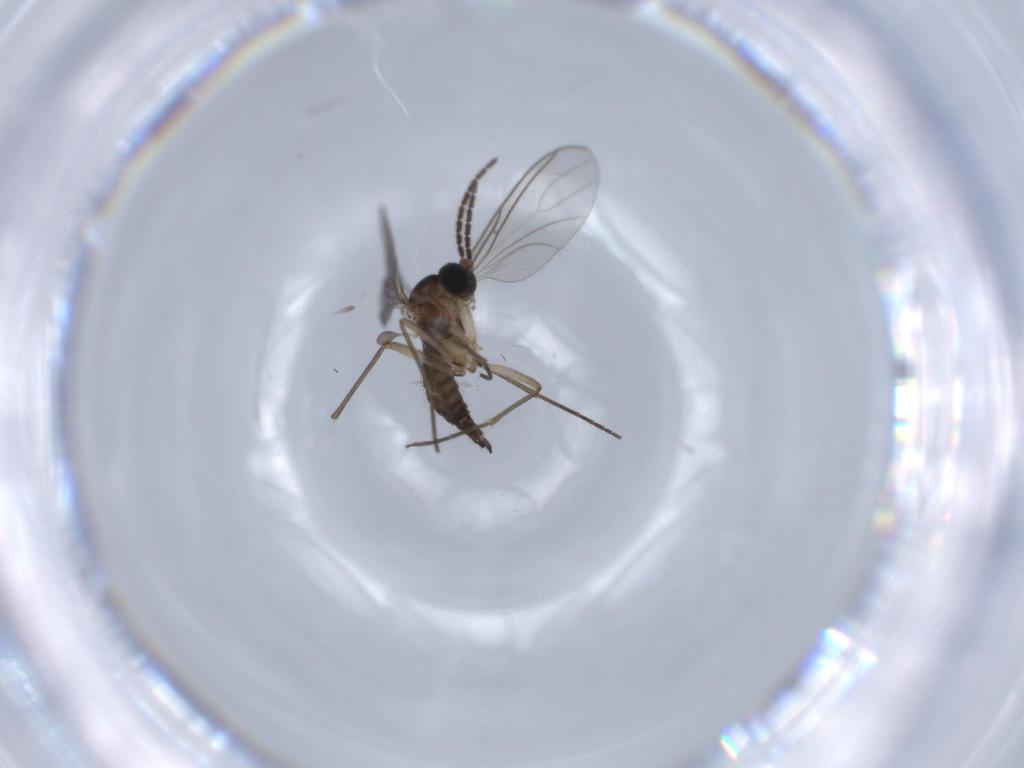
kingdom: Animalia
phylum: Arthropoda
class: Insecta
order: Diptera
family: Sciaridae
